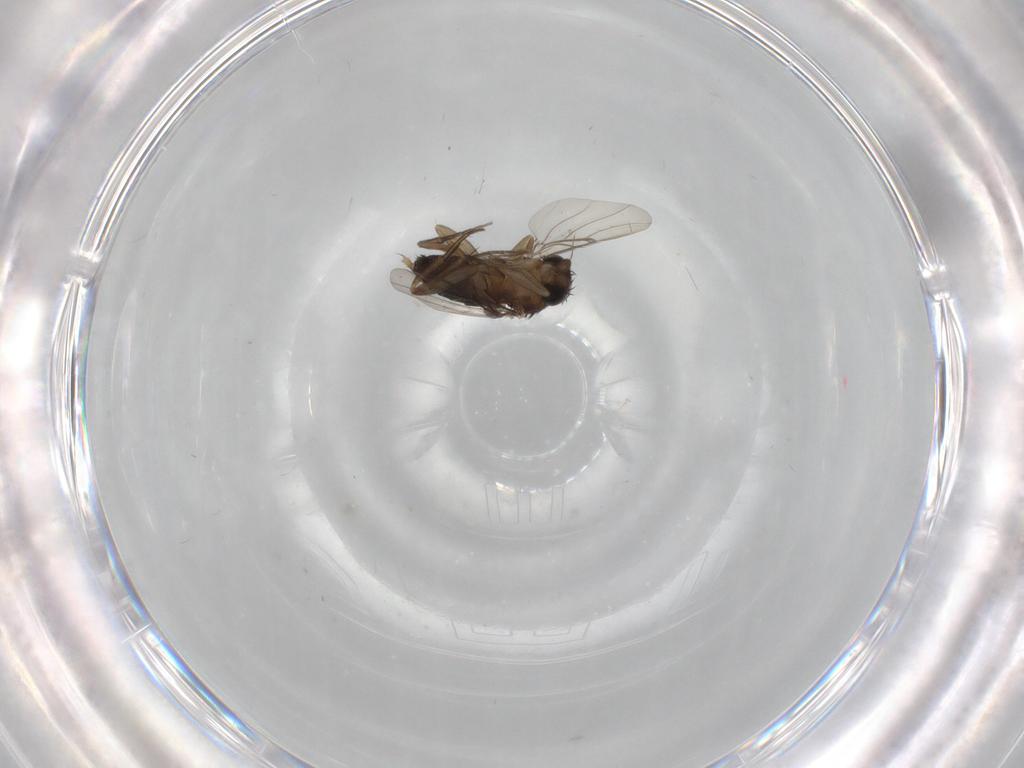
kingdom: Animalia
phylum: Arthropoda
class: Insecta
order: Diptera
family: Phoridae
